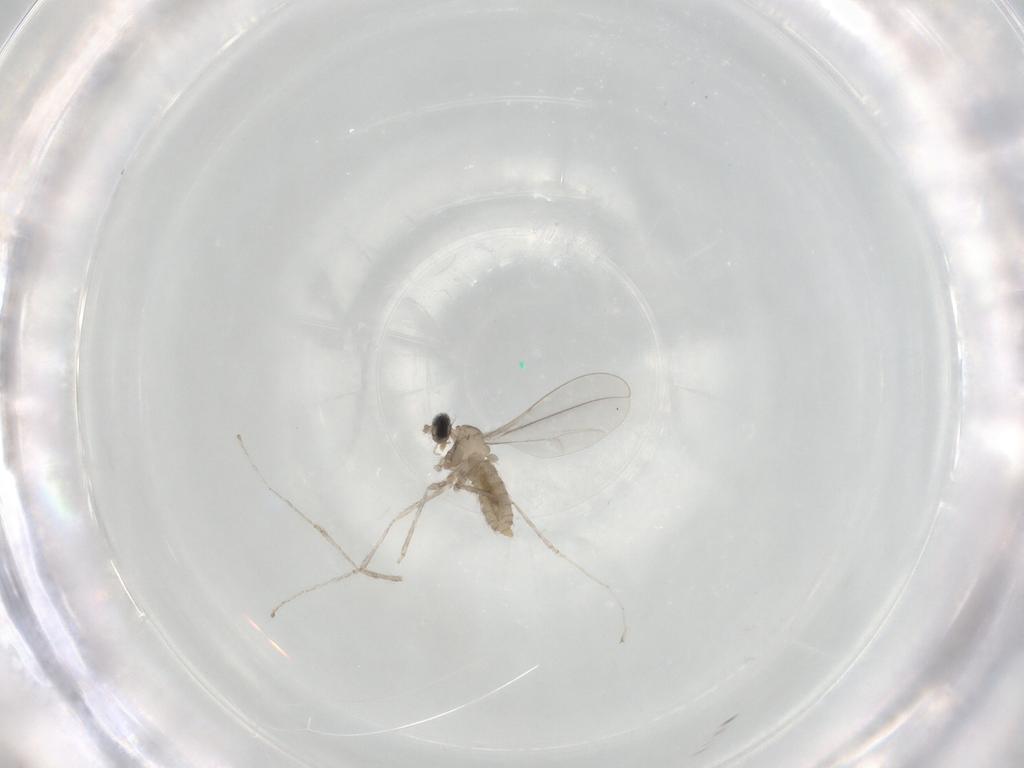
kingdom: Animalia
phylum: Arthropoda
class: Insecta
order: Diptera
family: Cecidomyiidae
